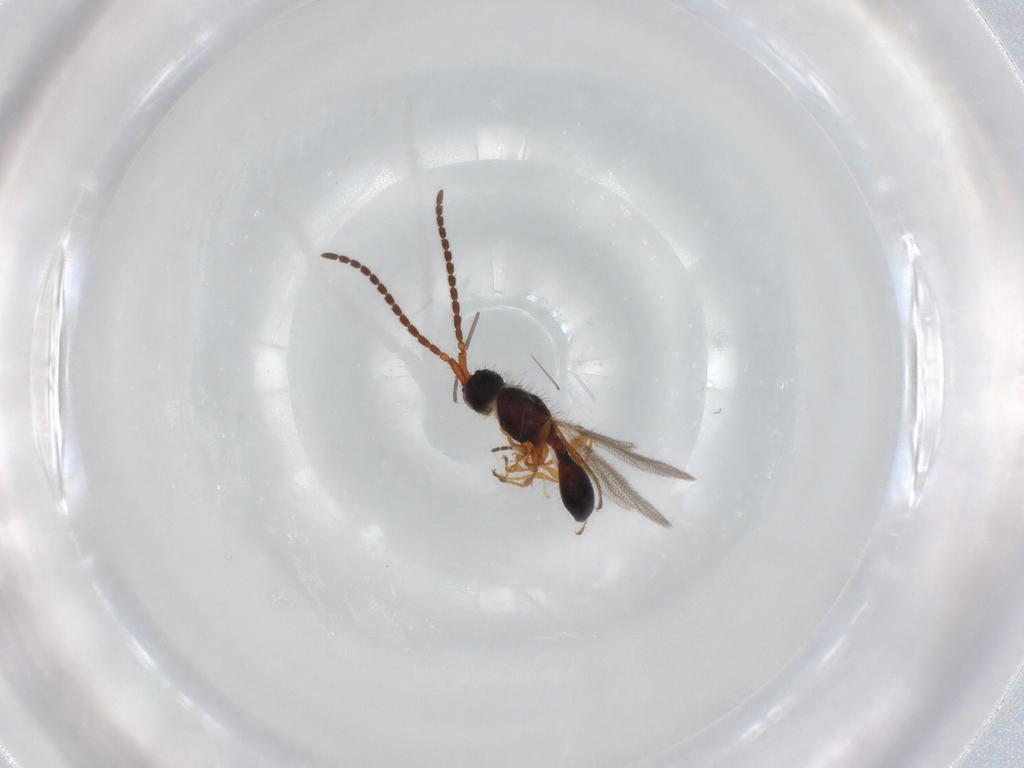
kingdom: Animalia
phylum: Arthropoda
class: Insecta
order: Hymenoptera
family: Diapriidae
